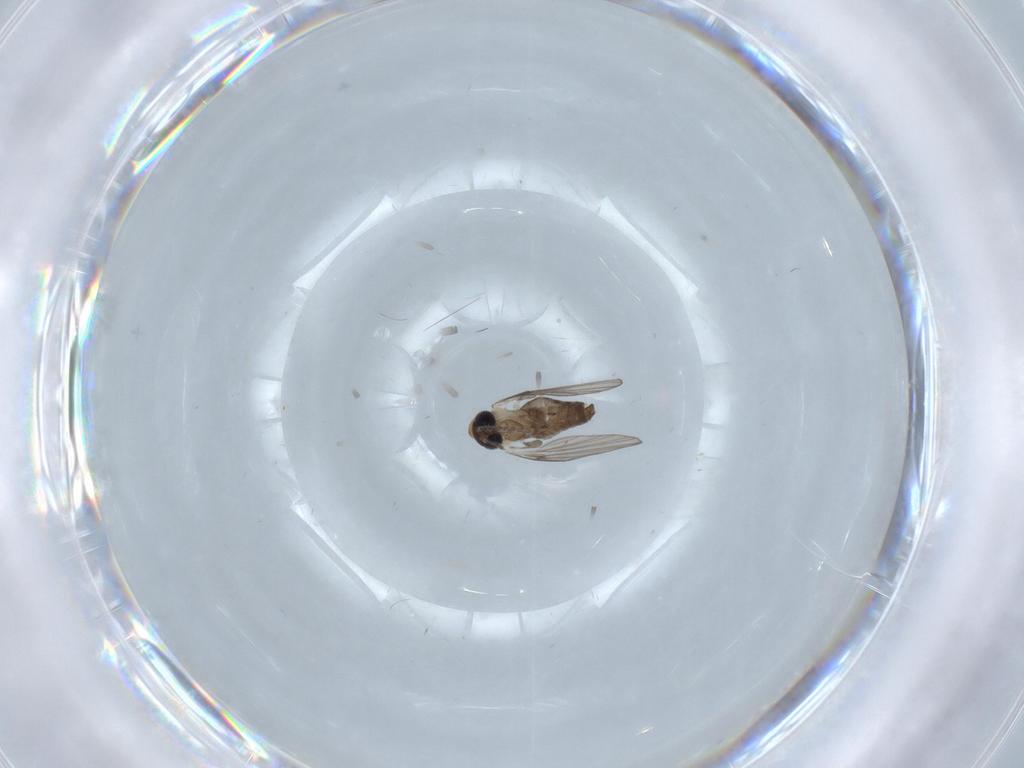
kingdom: Animalia
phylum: Arthropoda
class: Insecta
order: Diptera
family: Psychodidae
